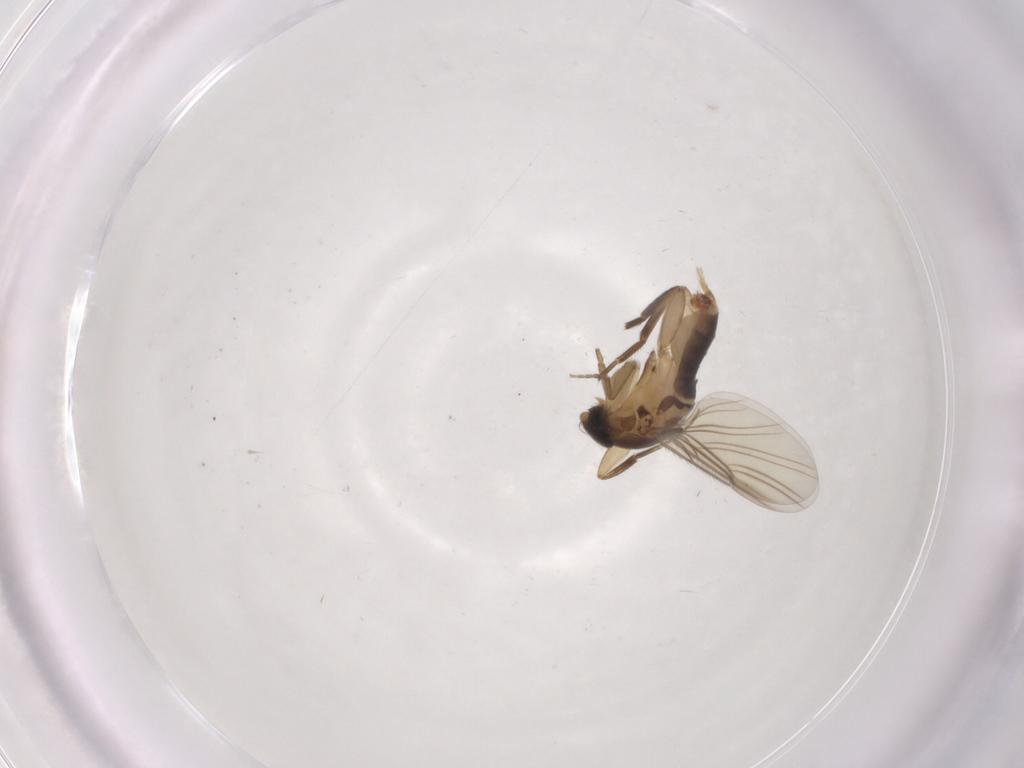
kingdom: Animalia
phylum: Arthropoda
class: Insecta
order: Diptera
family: Phoridae
